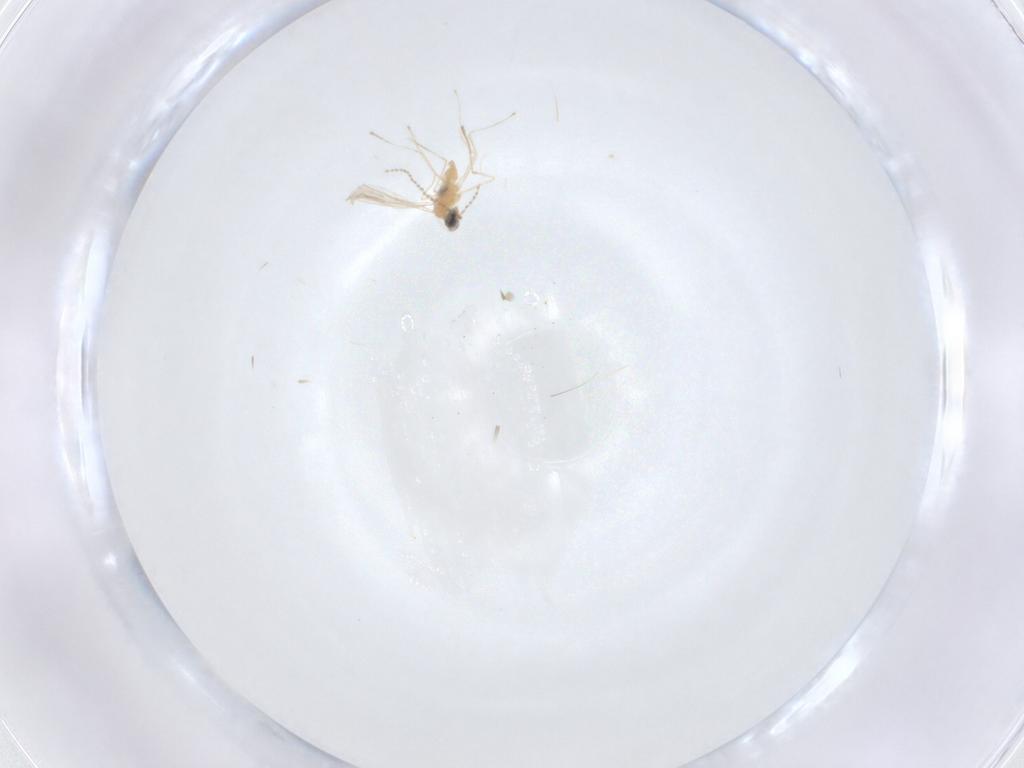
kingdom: Animalia
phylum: Arthropoda
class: Insecta
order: Diptera
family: Cecidomyiidae
